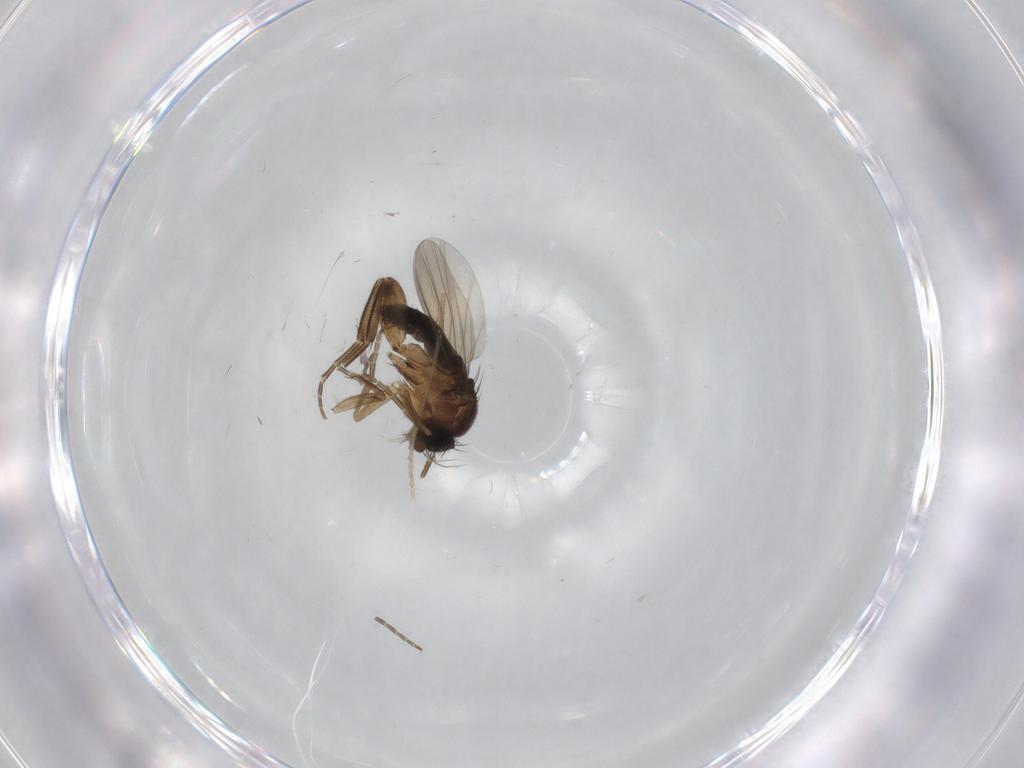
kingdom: Animalia
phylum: Arthropoda
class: Insecta
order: Diptera
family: Phoridae
